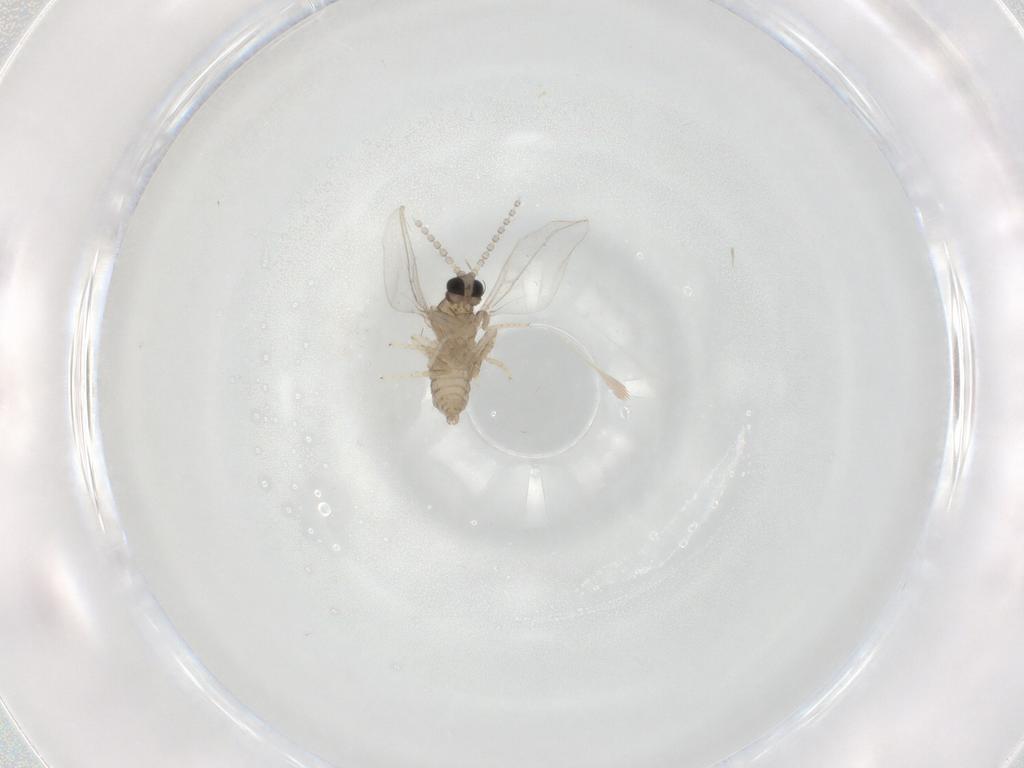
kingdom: Animalia
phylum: Arthropoda
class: Insecta
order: Diptera
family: Cecidomyiidae
